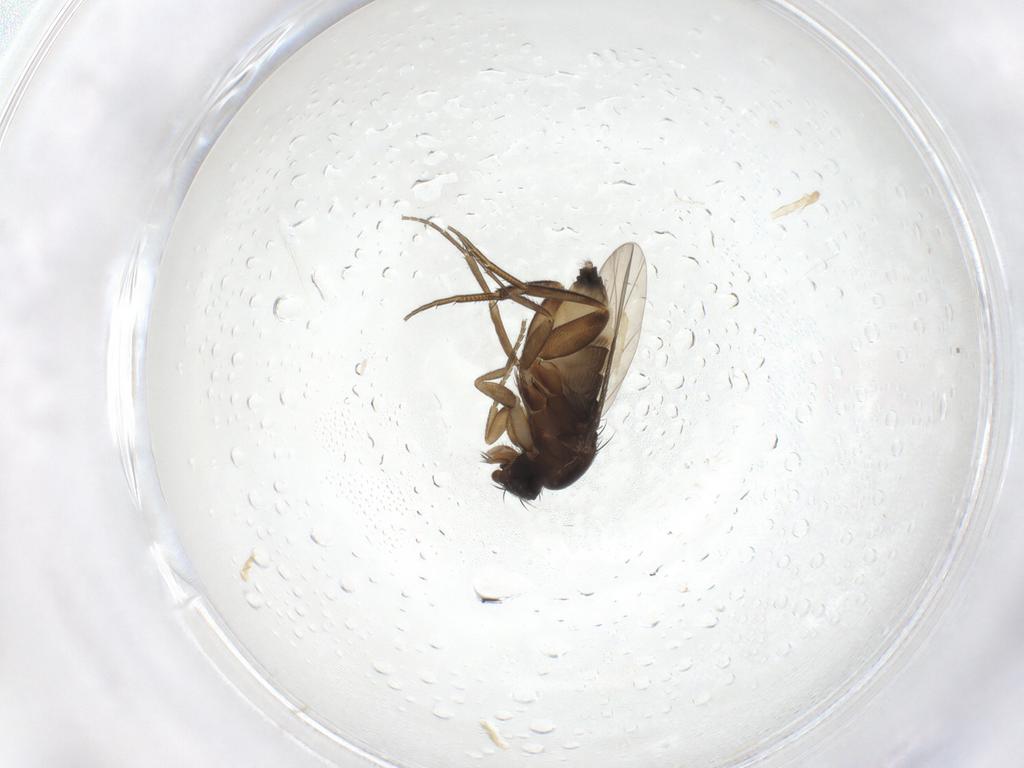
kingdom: Animalia
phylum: Arthropoda
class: Insecta
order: Diptera
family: Phoridae
